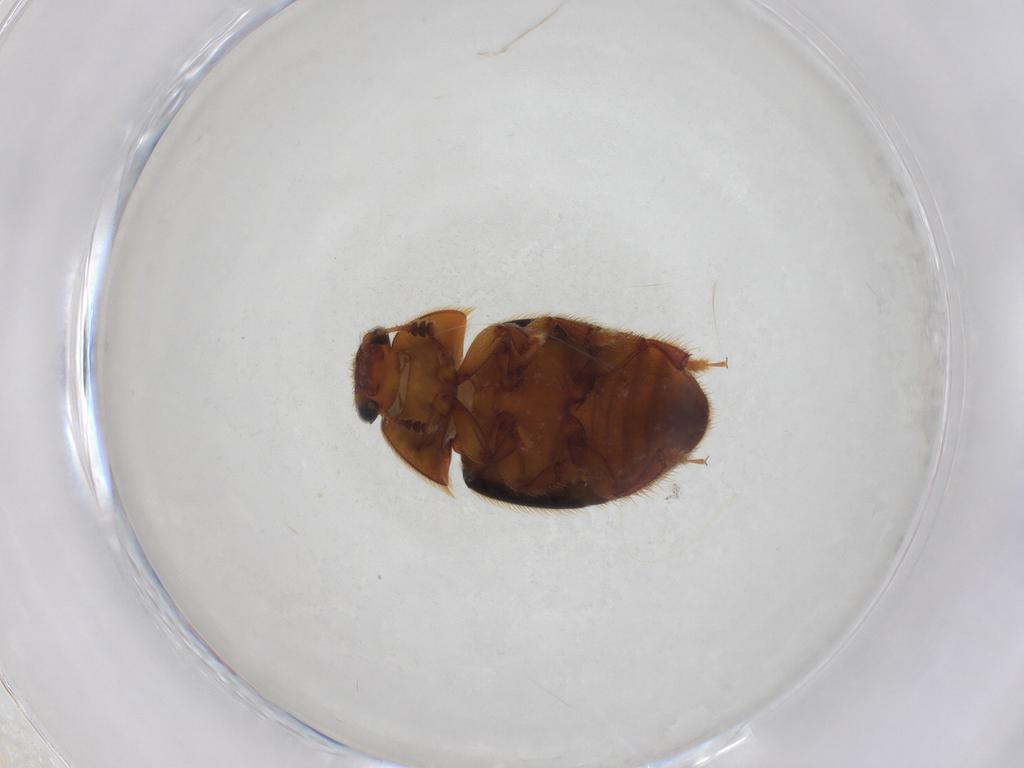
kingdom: Animalia
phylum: Arthropoda
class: Insecta
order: Coleoptera
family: Nitidulidae
